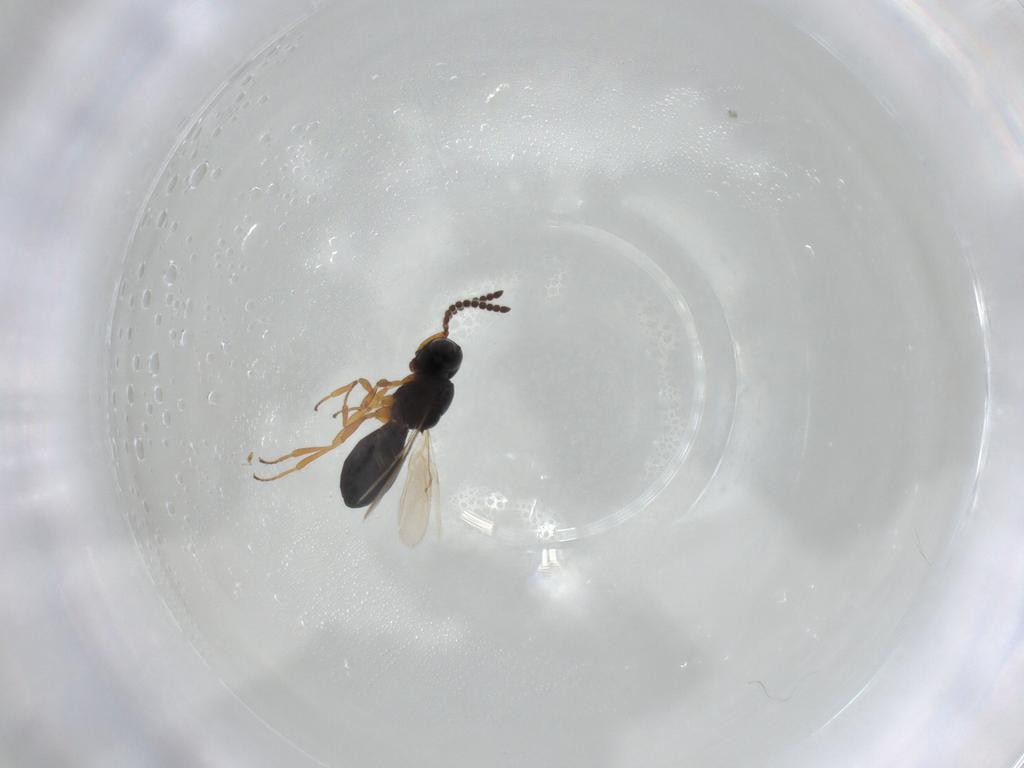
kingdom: Animalia
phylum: Arthropoda
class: Insecta
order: Hymenoptera
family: Scelionidae
